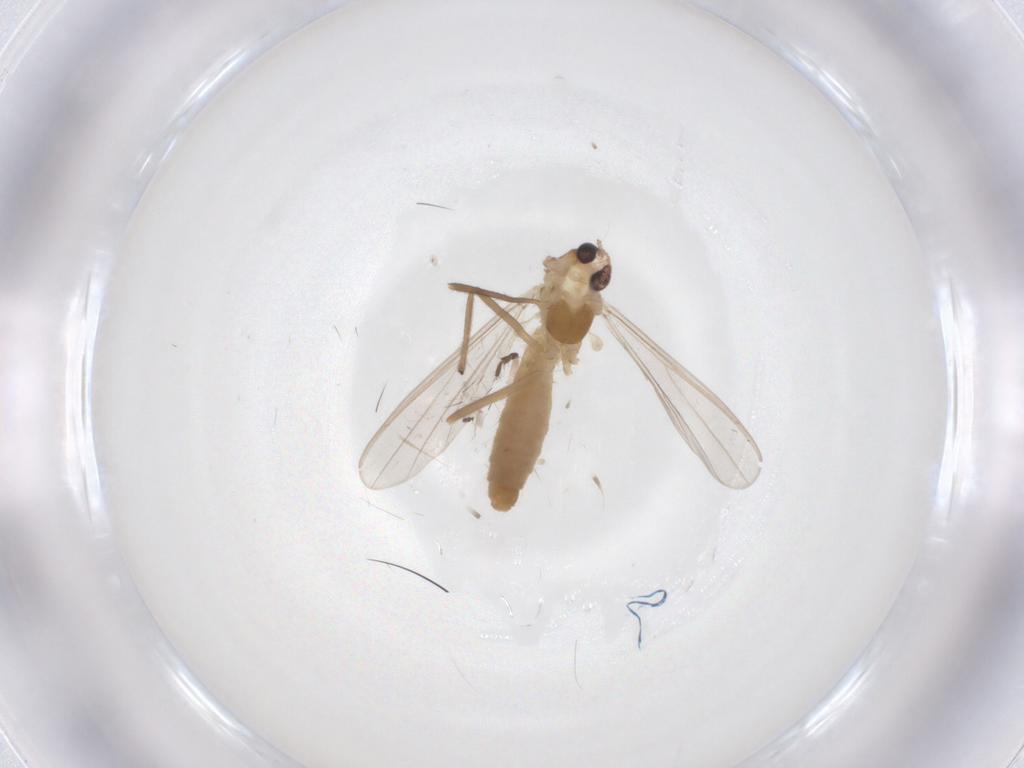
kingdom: Animalia
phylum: Arthropoda
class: Insecta
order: Diptera
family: Chironomidae
